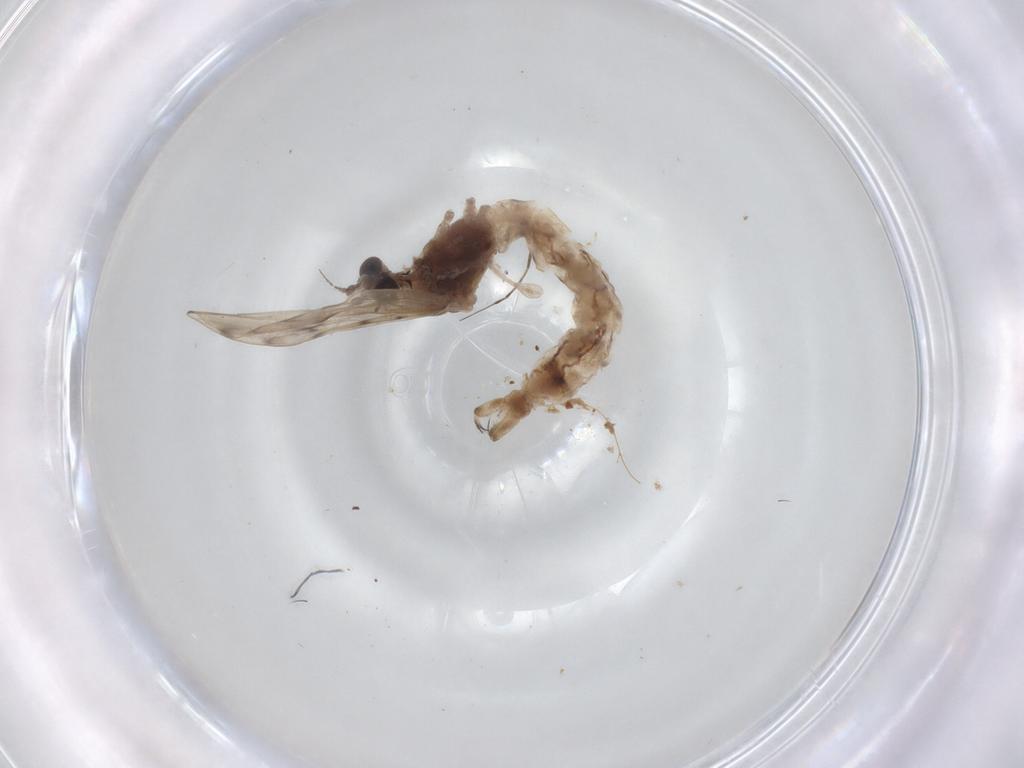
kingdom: Animalia
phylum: Arthropoda
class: Insecta
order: Diptera
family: Limoniidae
